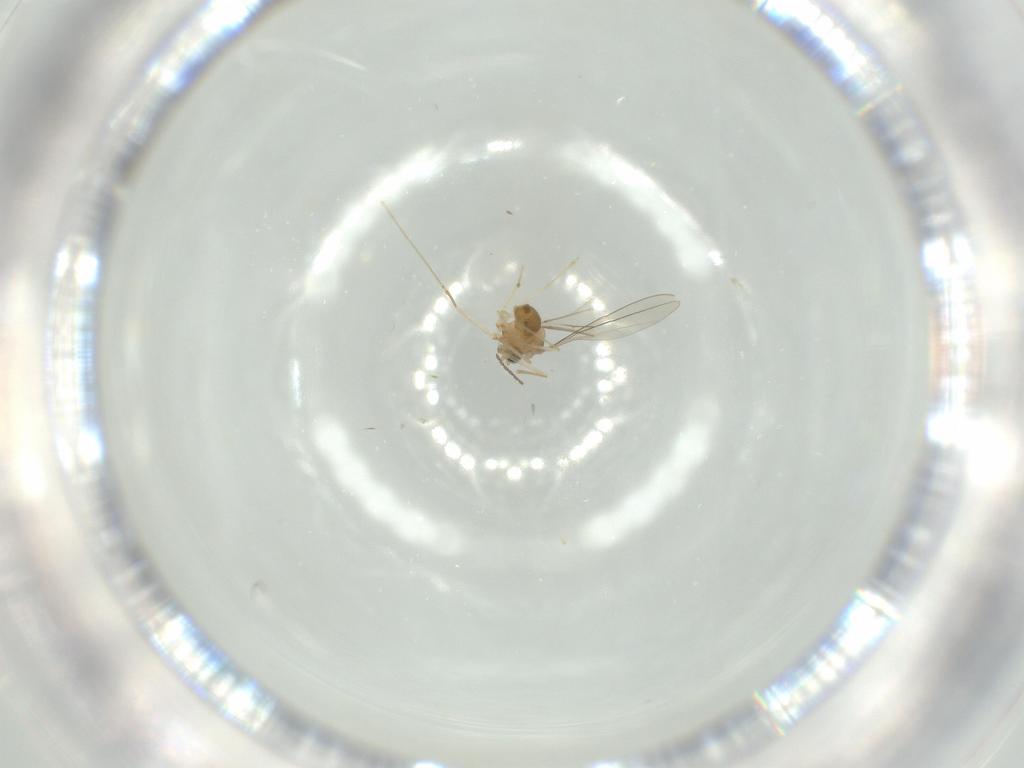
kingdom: Animalia
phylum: Arthropoda
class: Insecta
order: Diptera
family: Cecidomyiidae
